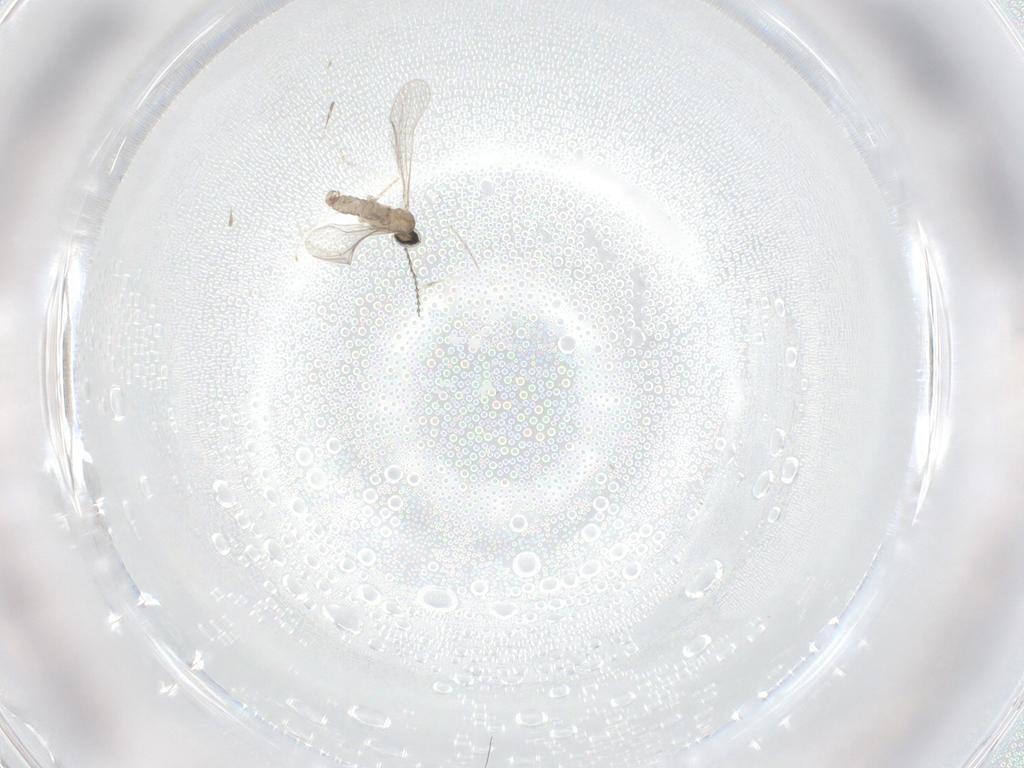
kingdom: Animalia
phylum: Arthropoda
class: Insecta
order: Diptera
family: Cecidomyiidae
